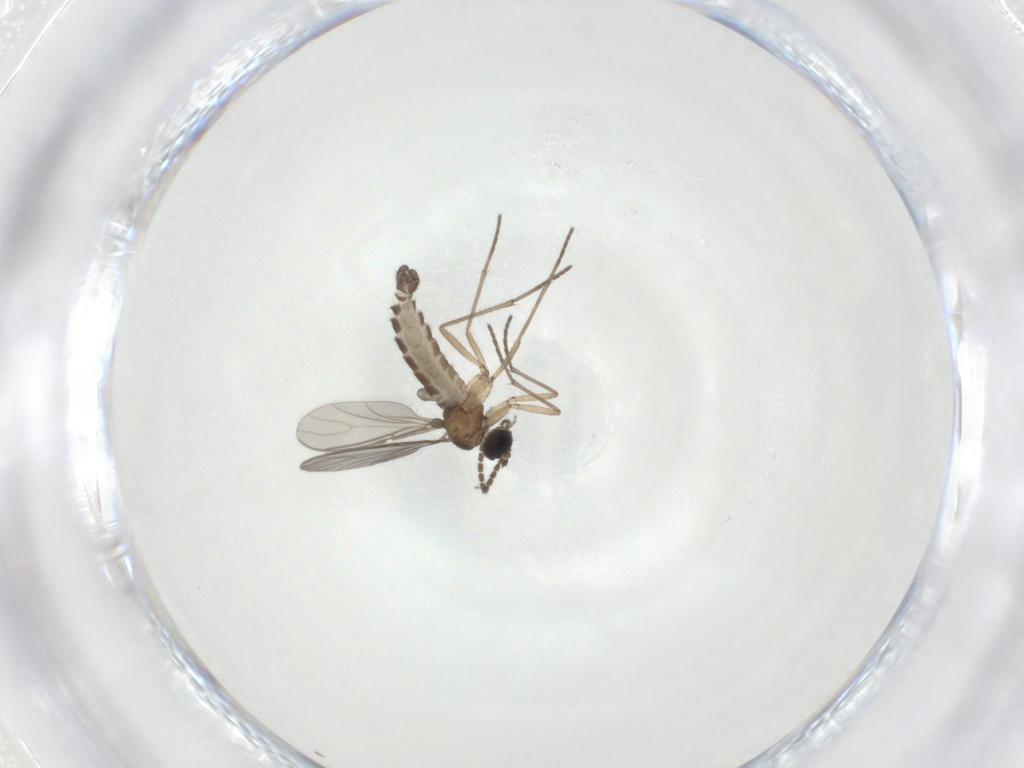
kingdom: Animalia
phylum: Arthropoda
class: Insecta
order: Diptera
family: Sciaridae
